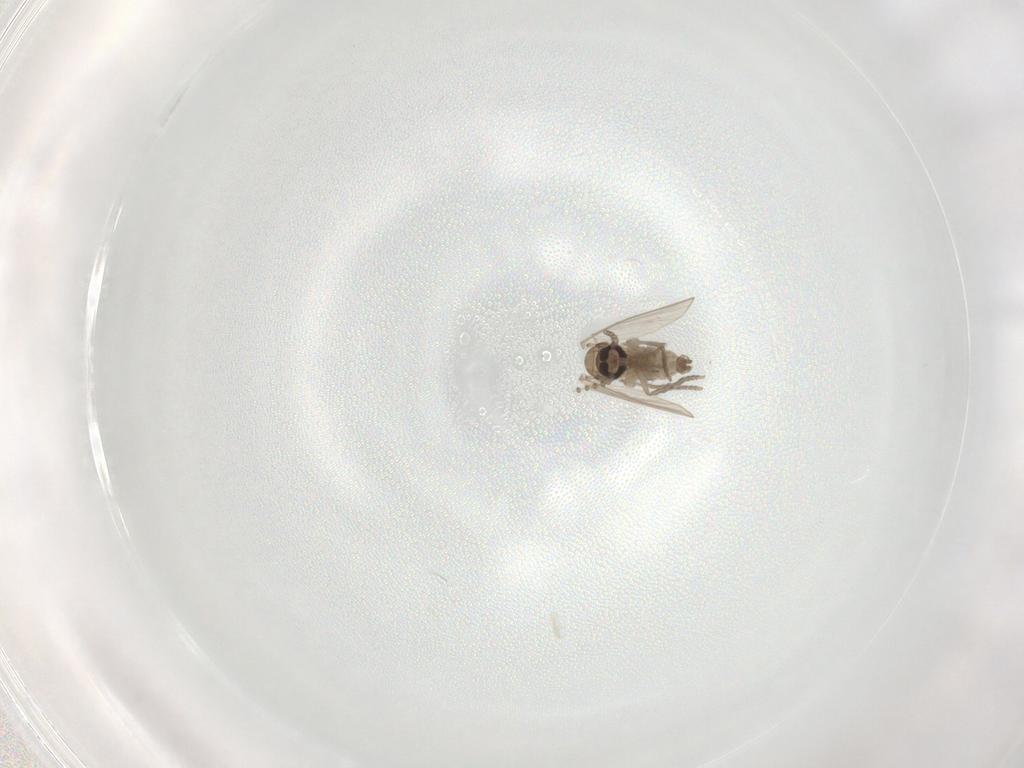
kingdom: Animalia
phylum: Arthropoda
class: Insecta
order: Diptera
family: Psychodidae
